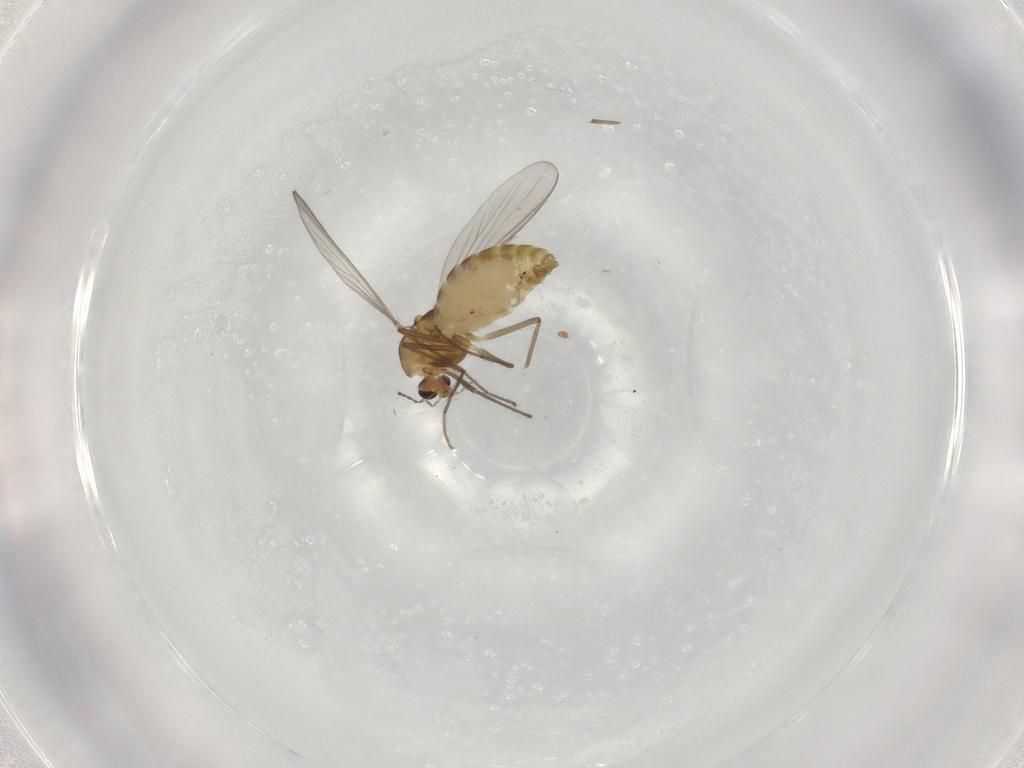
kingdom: Animalia
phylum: Arthropoda
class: Insecta
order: Diptera
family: Chironomidae
